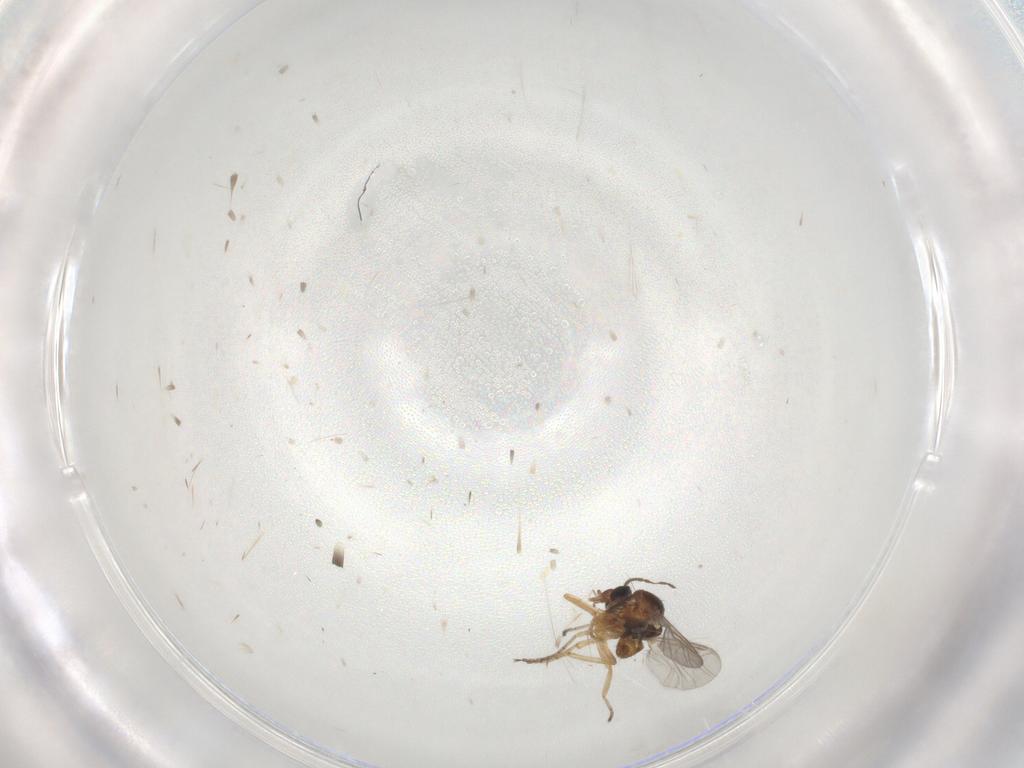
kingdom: Animalia
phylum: Arthropoda
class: Insecta
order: Diptera
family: Ceratopogonidae
